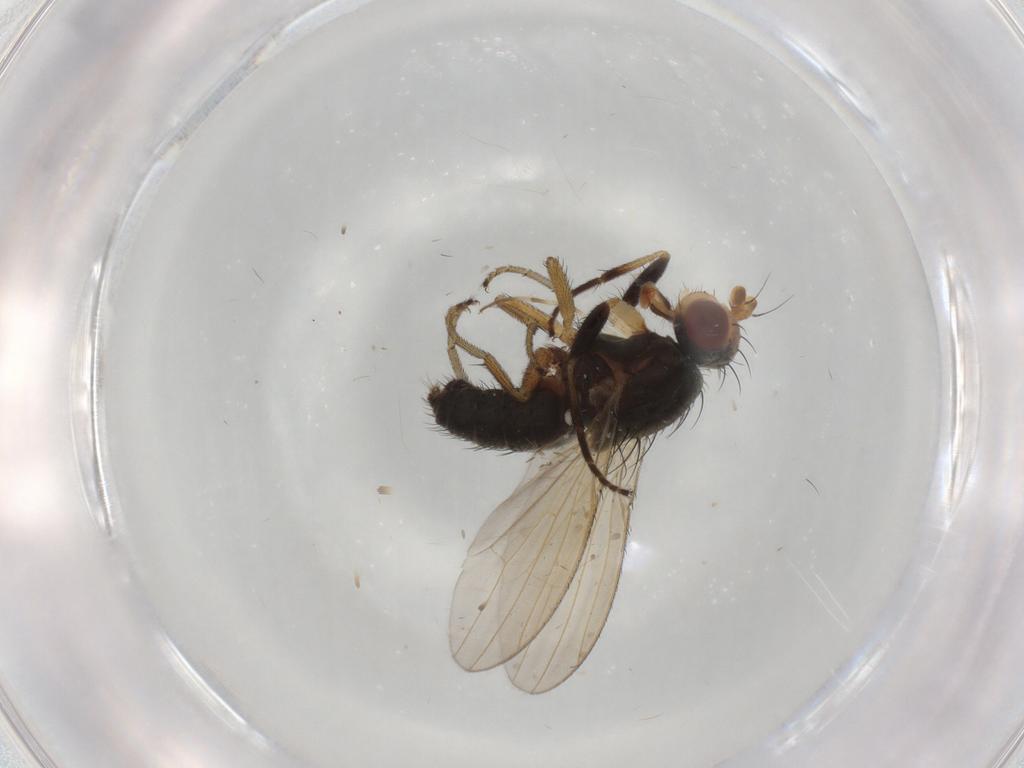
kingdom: Animalia
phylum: Arthropoda
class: Insecta
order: Diptera
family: Ulidiidae
